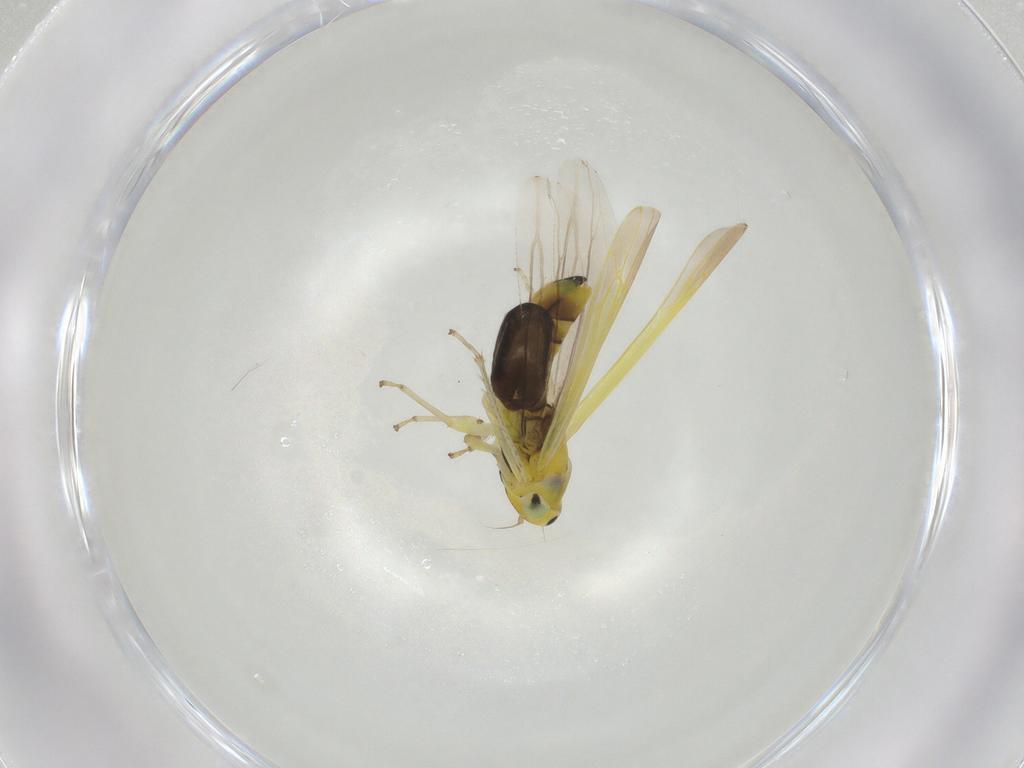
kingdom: Animalia
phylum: Arthropoda
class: Insecta
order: Hemiptera
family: Cicadellidae
